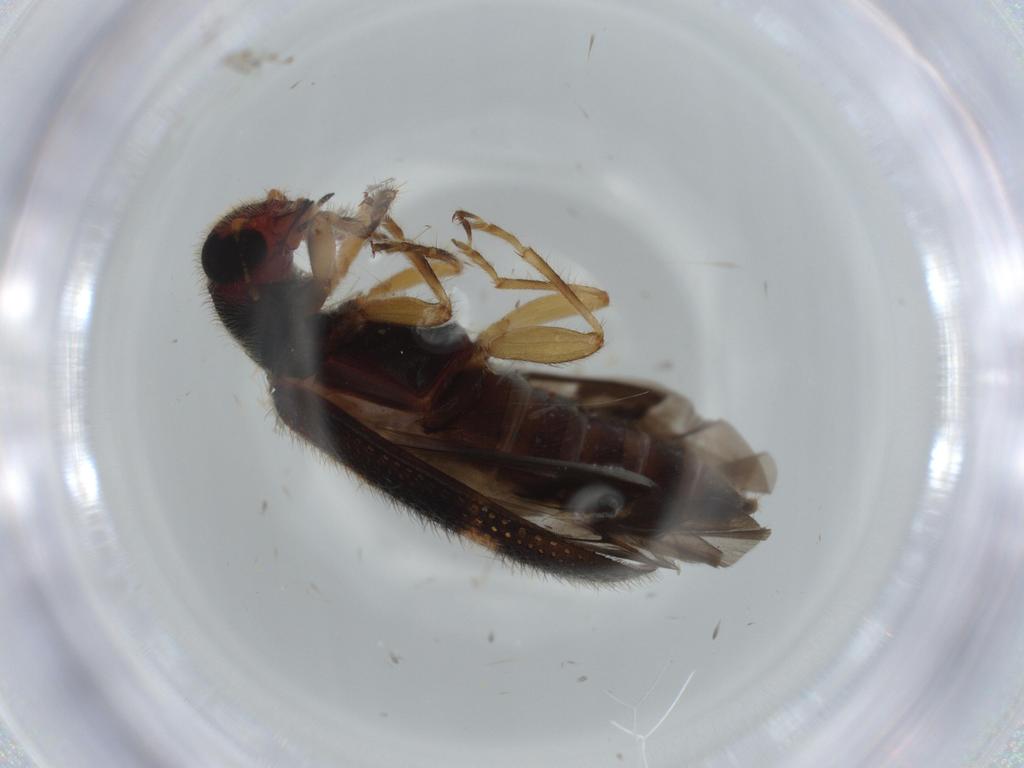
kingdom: Animalia
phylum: Arthropoda
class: Insecta
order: Coleoptera
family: Cleridae
